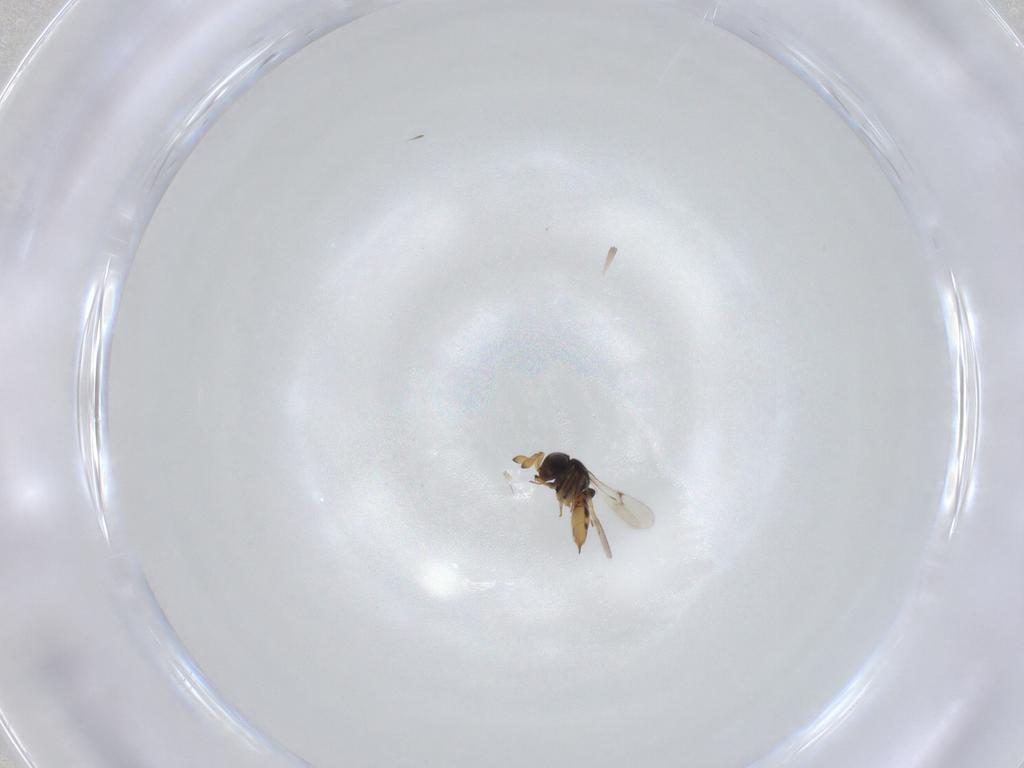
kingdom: Animalia
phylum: Arthropoda
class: Insecta
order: Hymenoptera
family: Scelionidae
